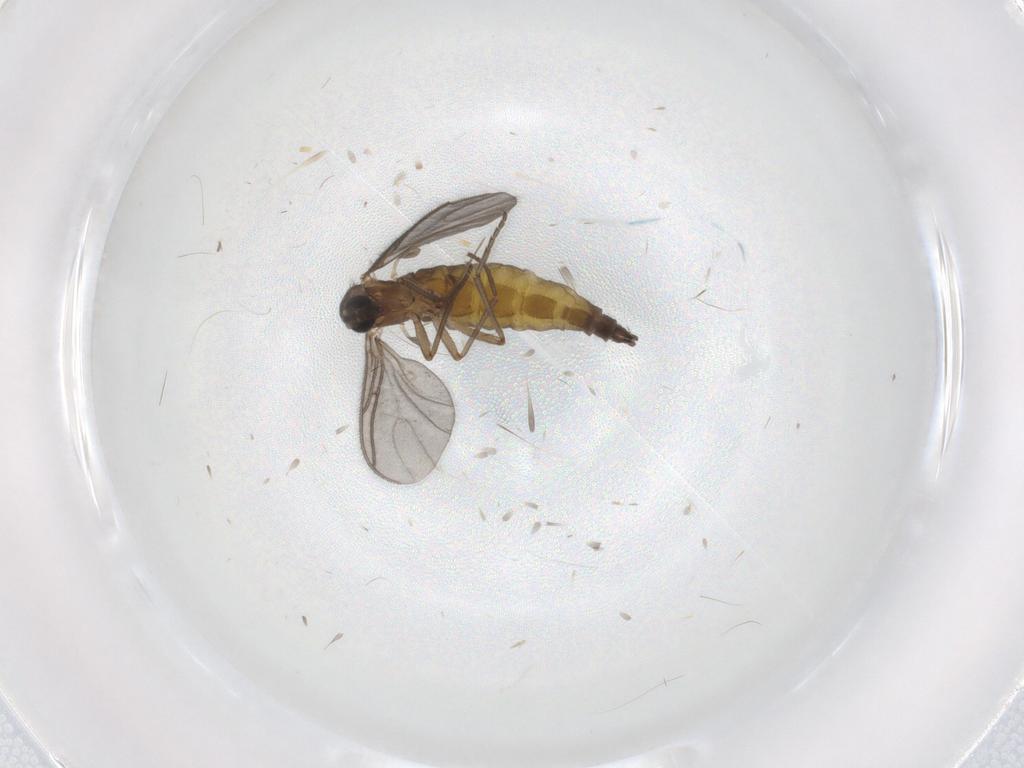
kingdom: Animalia
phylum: Arthropoda
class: Insecta
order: Diptera
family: Sciaridae
